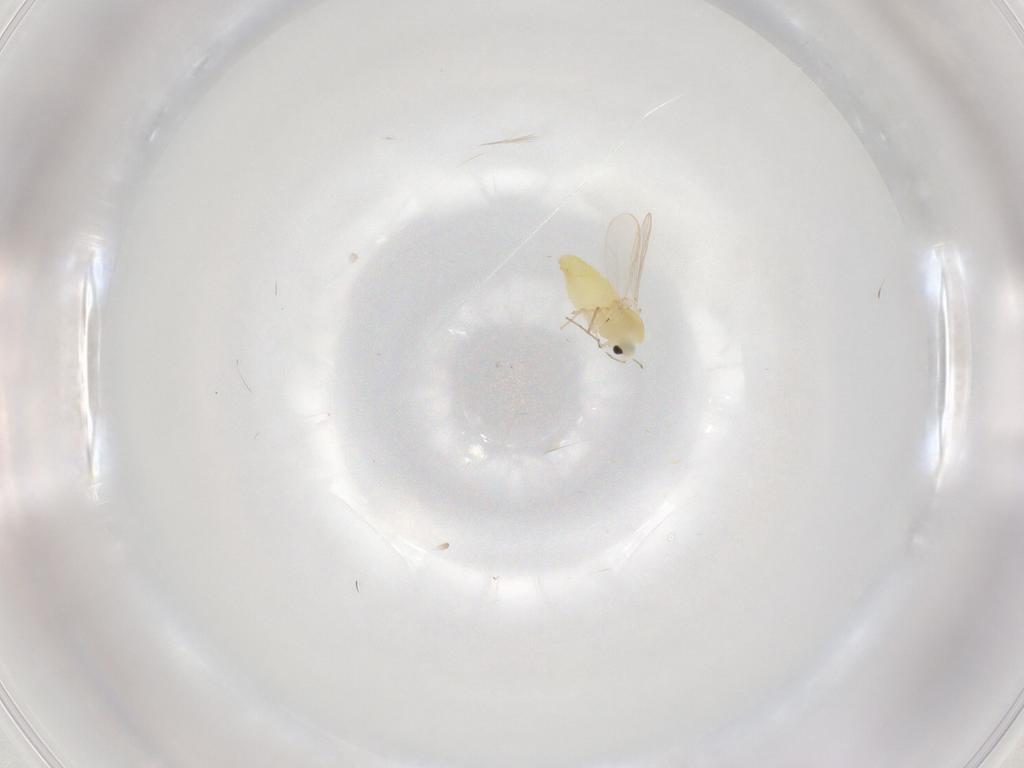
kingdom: Animalia
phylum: Arthropoda
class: Insecta
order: Diptera
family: Chironomidae
